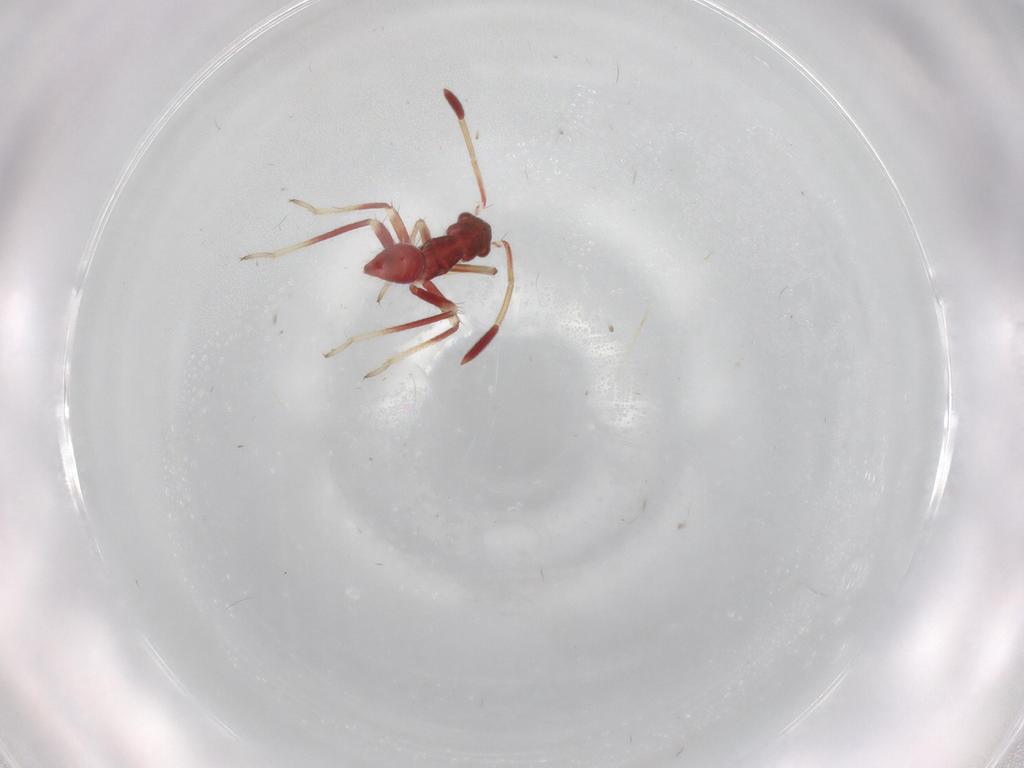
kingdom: Animalia
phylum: Arthropoda
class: Insecta
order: Hemiptera
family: Miridae
